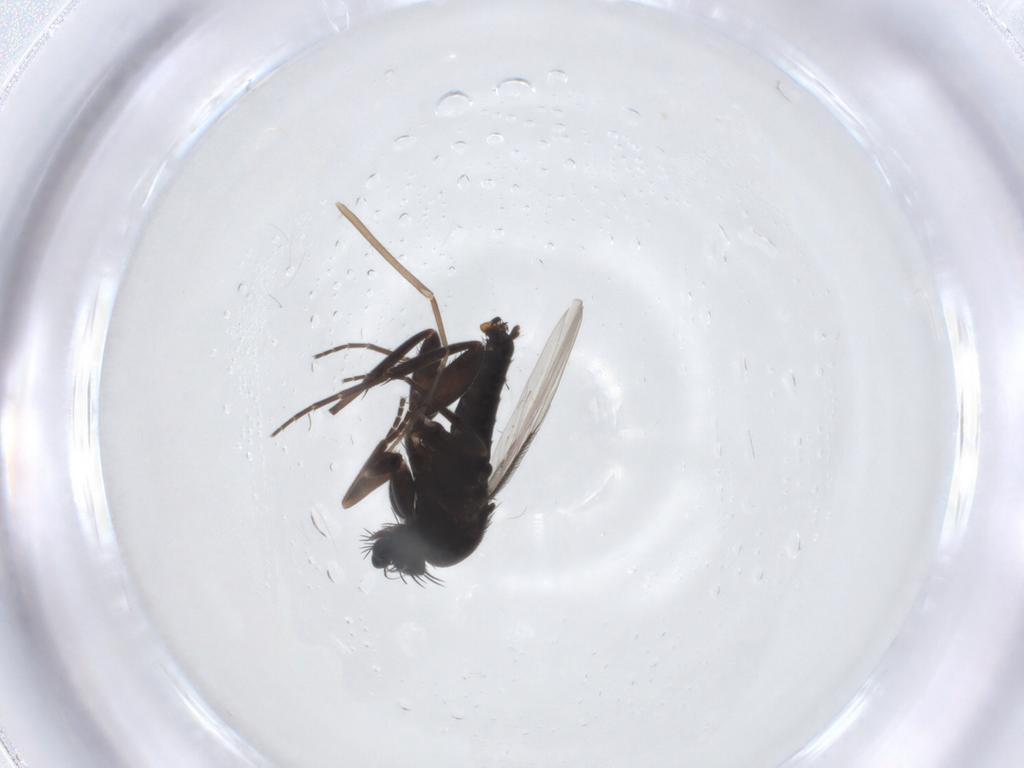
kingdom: Animalia
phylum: Arthropoda
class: Insecta
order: Diptera
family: Phoridae
